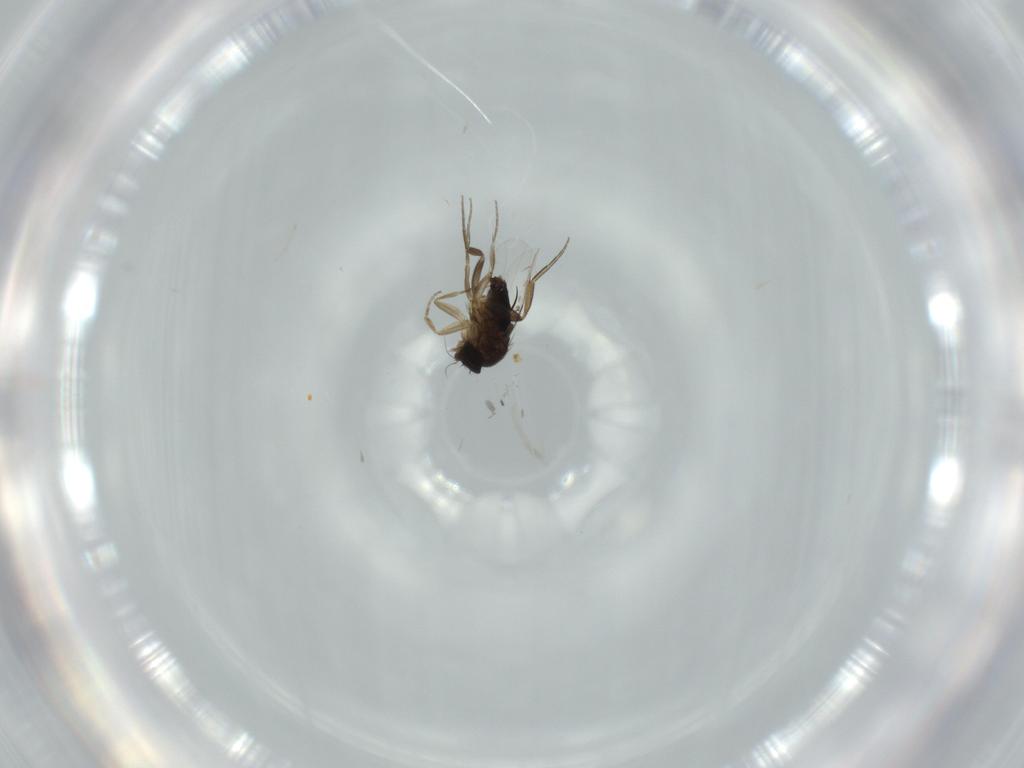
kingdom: Animalia
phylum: Arthropoda
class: Insecta
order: Diptera
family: Phoridae
